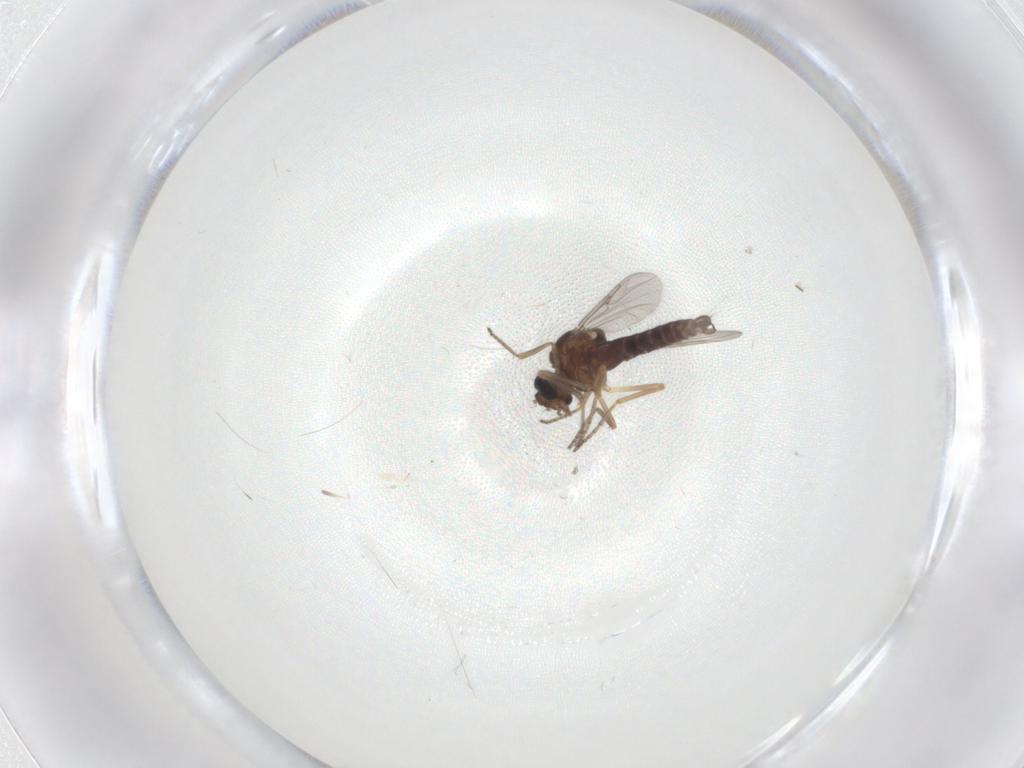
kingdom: Animalia
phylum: Arthropoda
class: Insecta
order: Diptera
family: Ceratopogonidae
